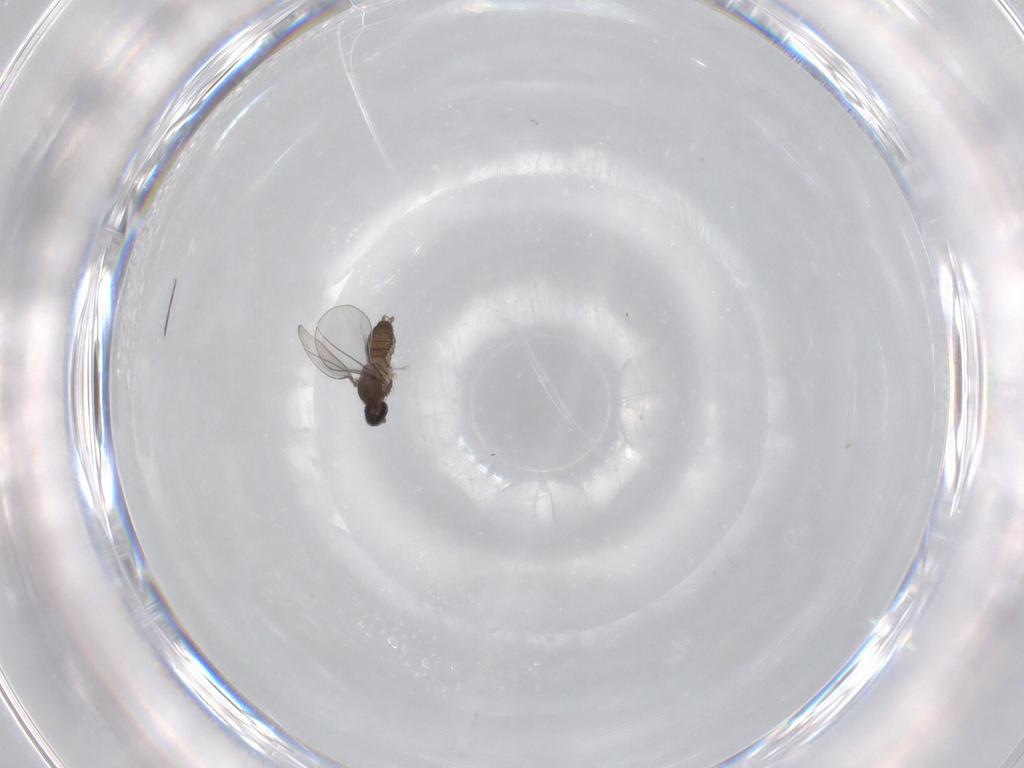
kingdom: Animalia
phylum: Arthropoda
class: Insecta
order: Diptera
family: Cecidomyiidae
